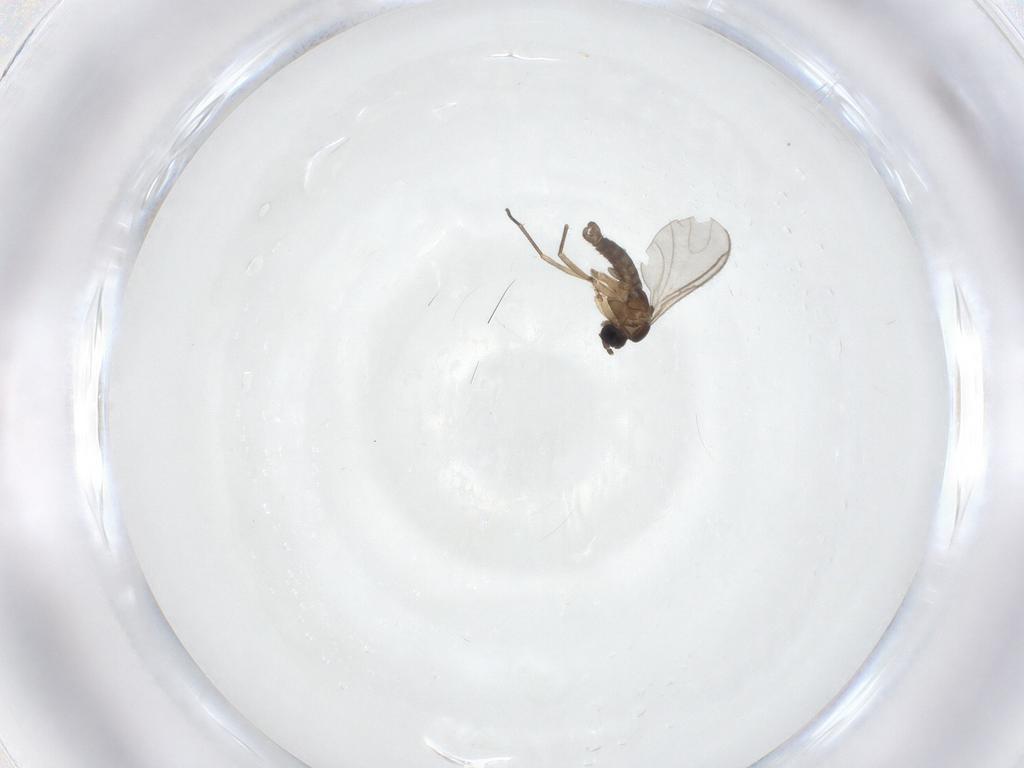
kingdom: Animalia
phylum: Arthropoda
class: Insecta
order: Diptera
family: Sciaridae
